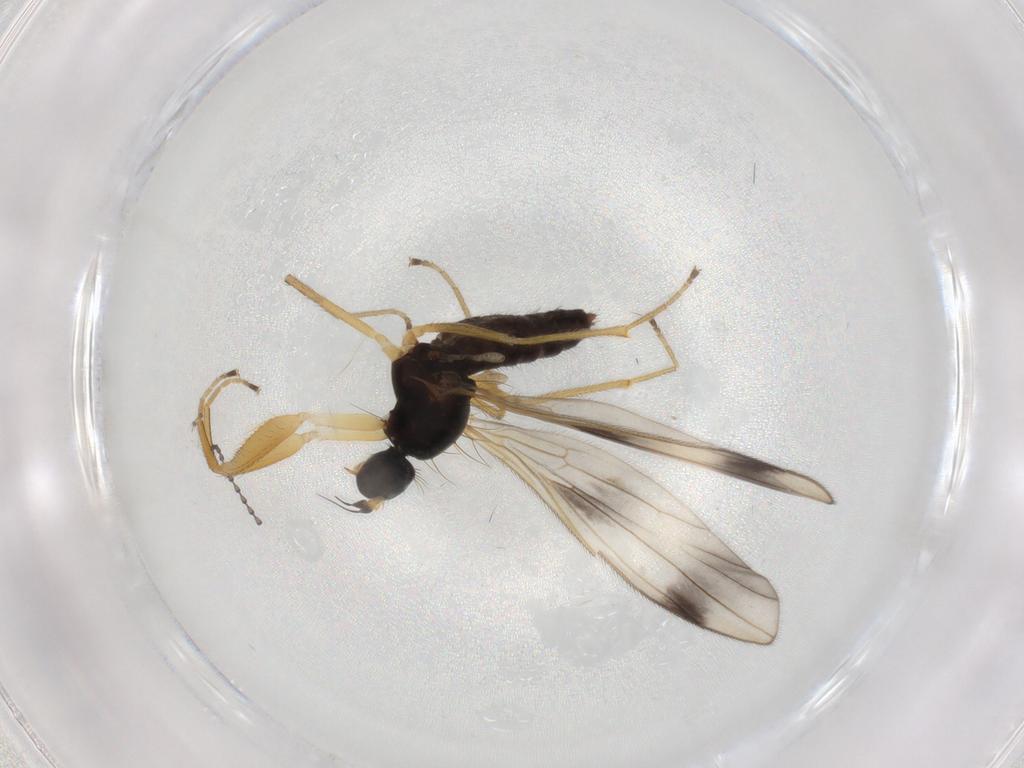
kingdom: Animalia
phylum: Arthropoda
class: Insecta
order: Diptera
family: Empididae
